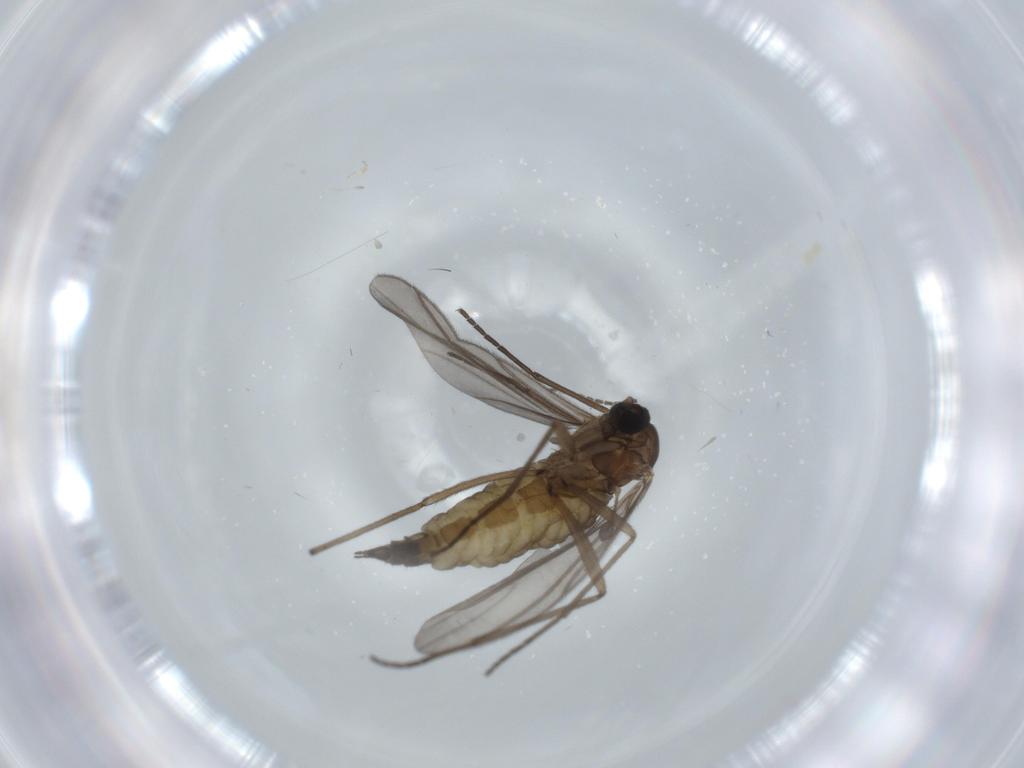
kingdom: Animalia
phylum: Arthropoda
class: Insecta
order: Diptera
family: Sciaridae
